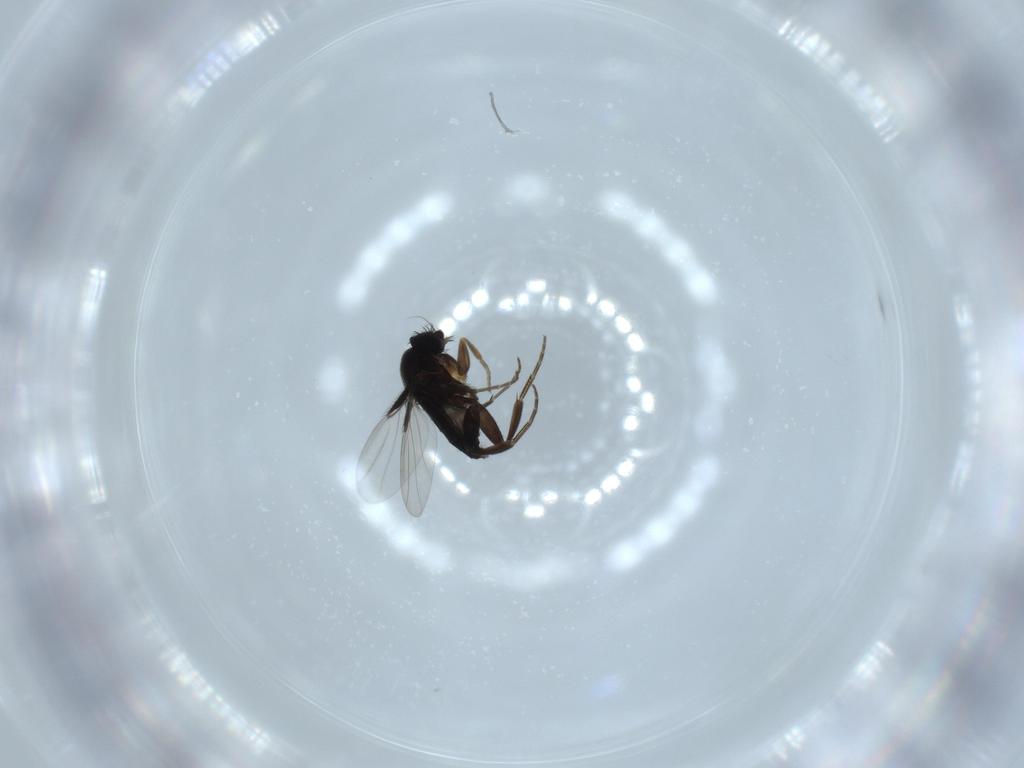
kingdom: Animalia
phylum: Arthropoda
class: Insecta
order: Diptera
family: Phoridae
